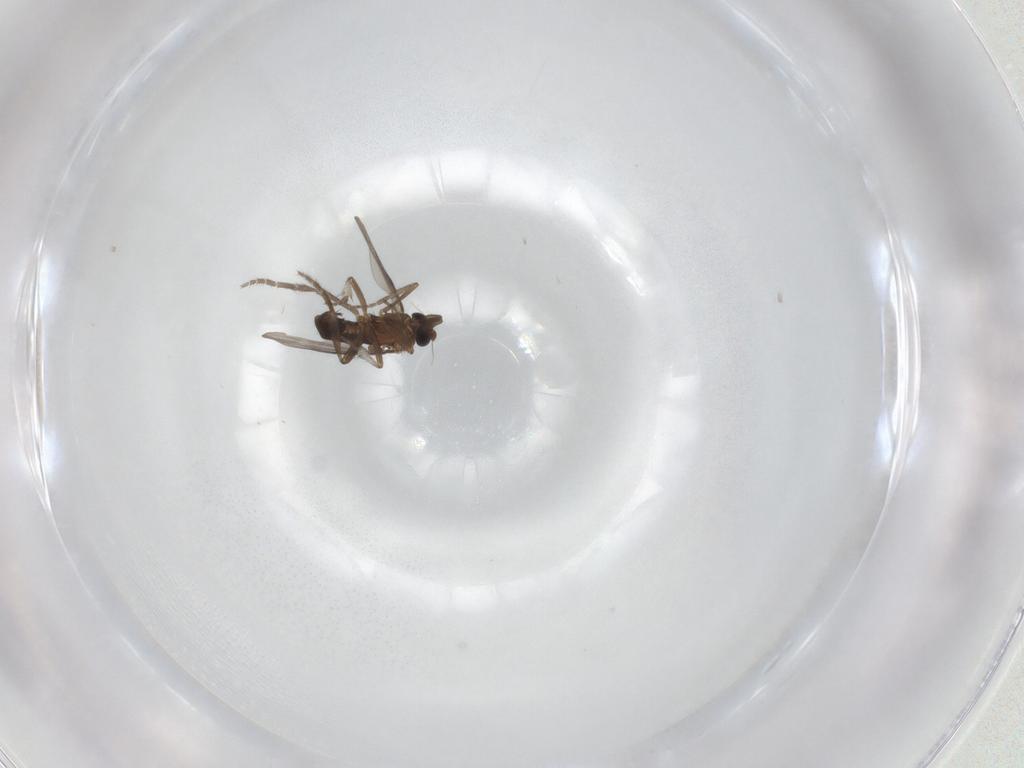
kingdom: Animalia
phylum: Arthropoda
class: Insecta
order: Diptera
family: Phoridae
